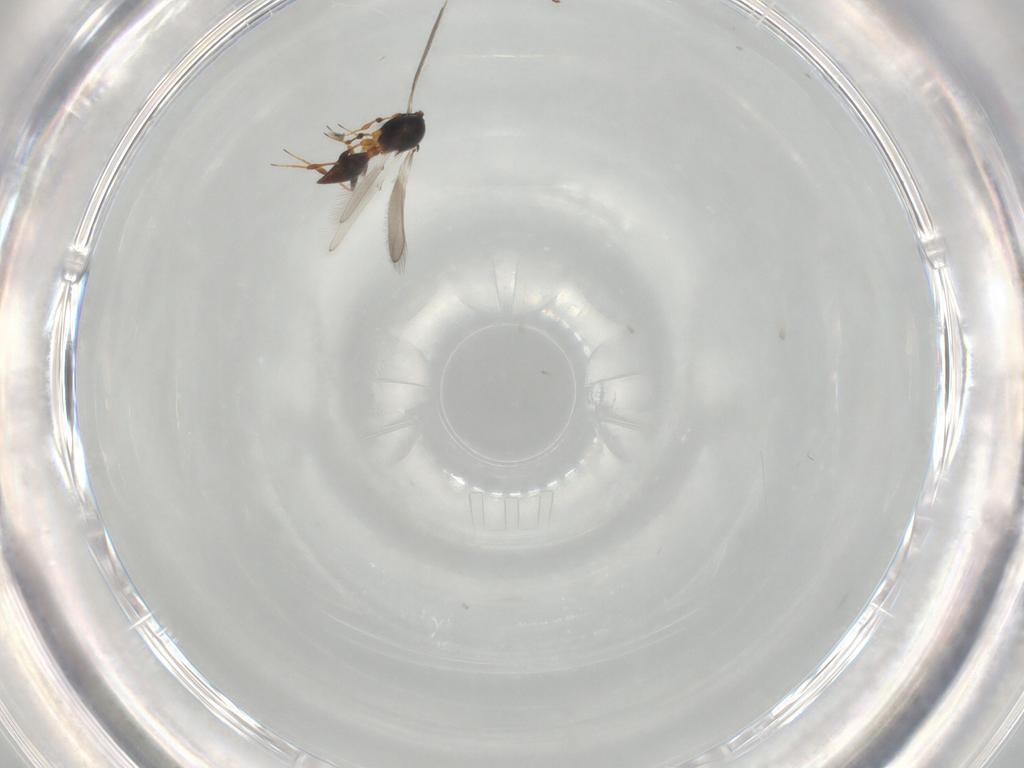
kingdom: Animalia
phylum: Arthropoda
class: Insecta
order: Hymenoptera
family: Platygastridae
